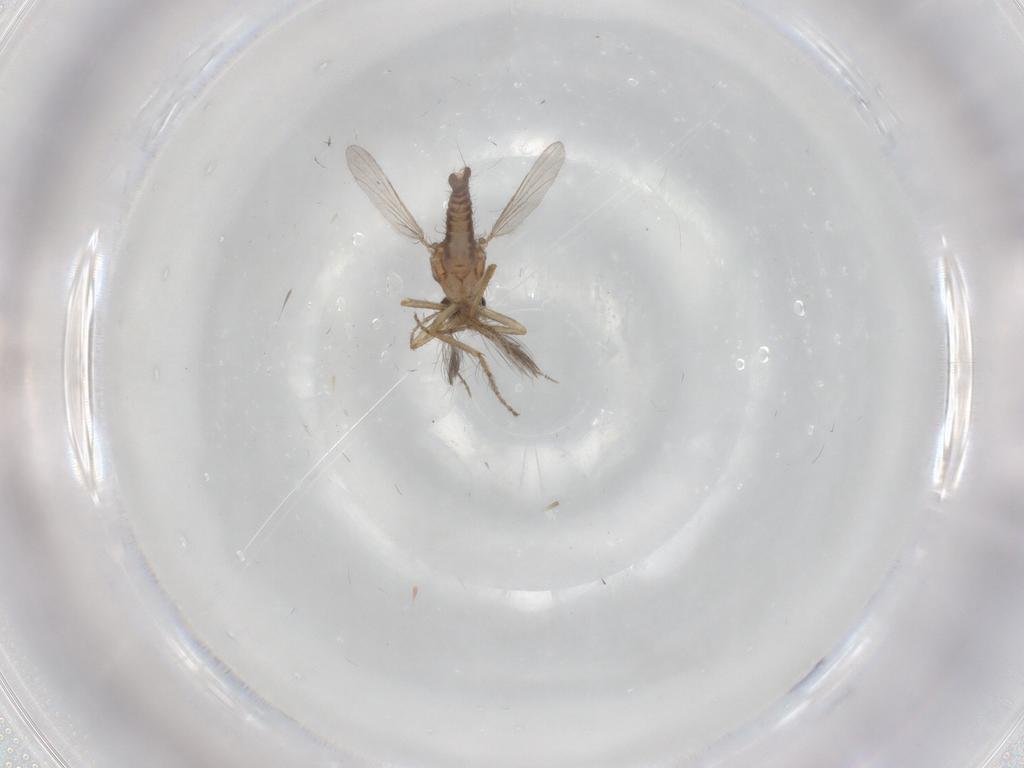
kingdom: Animalia
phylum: Arthropoda
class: Insecta
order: Diptera
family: Ceratopogonidae
